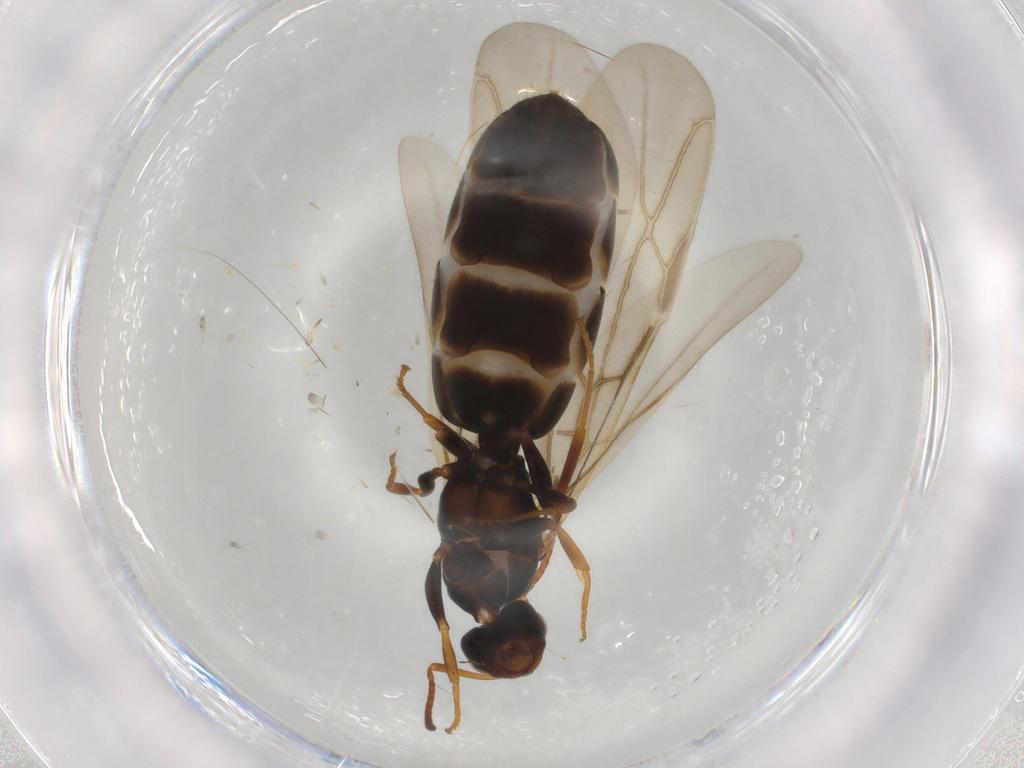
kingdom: Animalia
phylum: Arthropoda
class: Insecta
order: Hymenoptera
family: Formicidae
